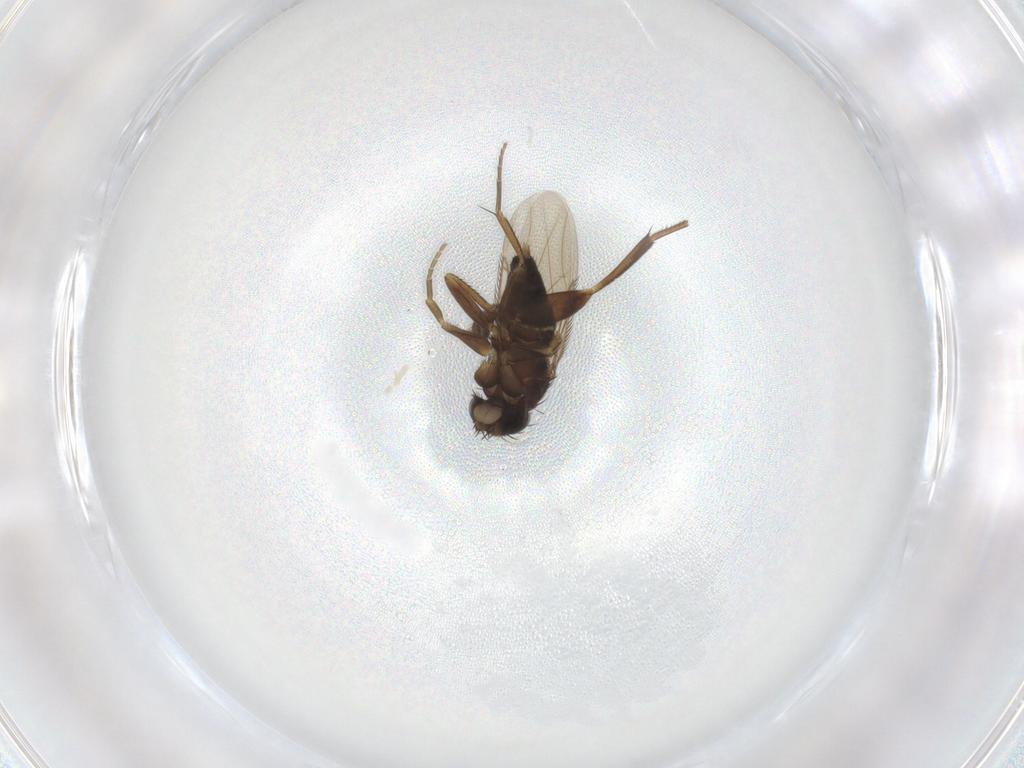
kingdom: Animalia
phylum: Arthropoda
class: Insecta
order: Diptera
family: Phoridae
